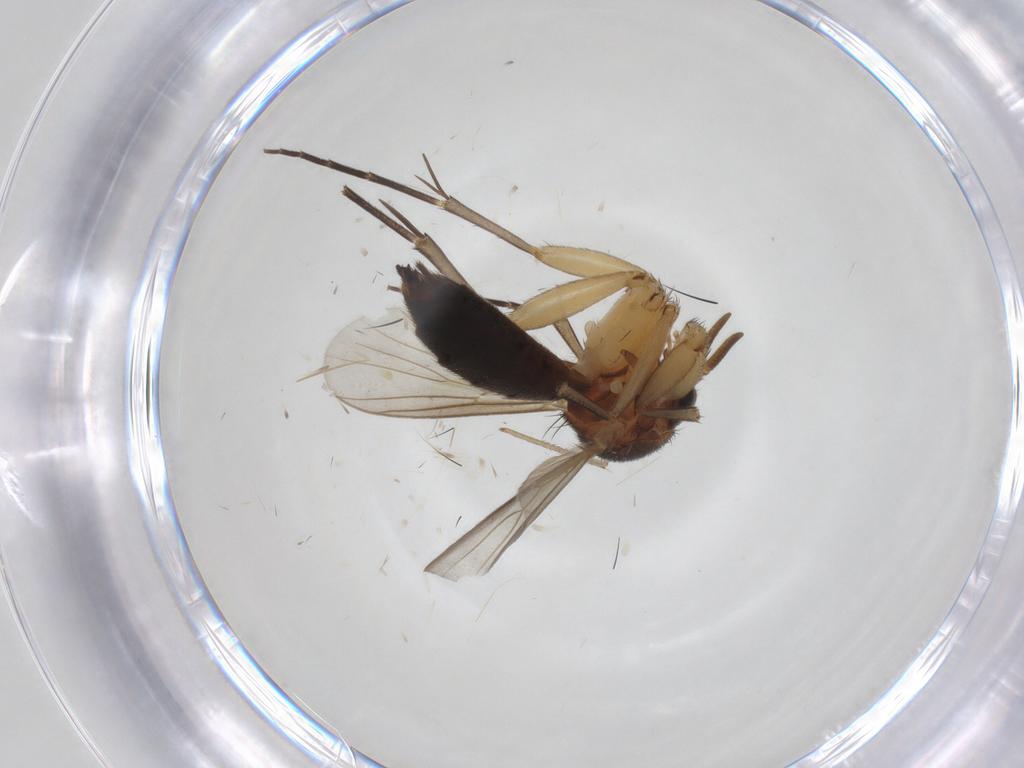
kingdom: Animalia
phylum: Arthropoda
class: Insecta
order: Diptera
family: Sciaridae
